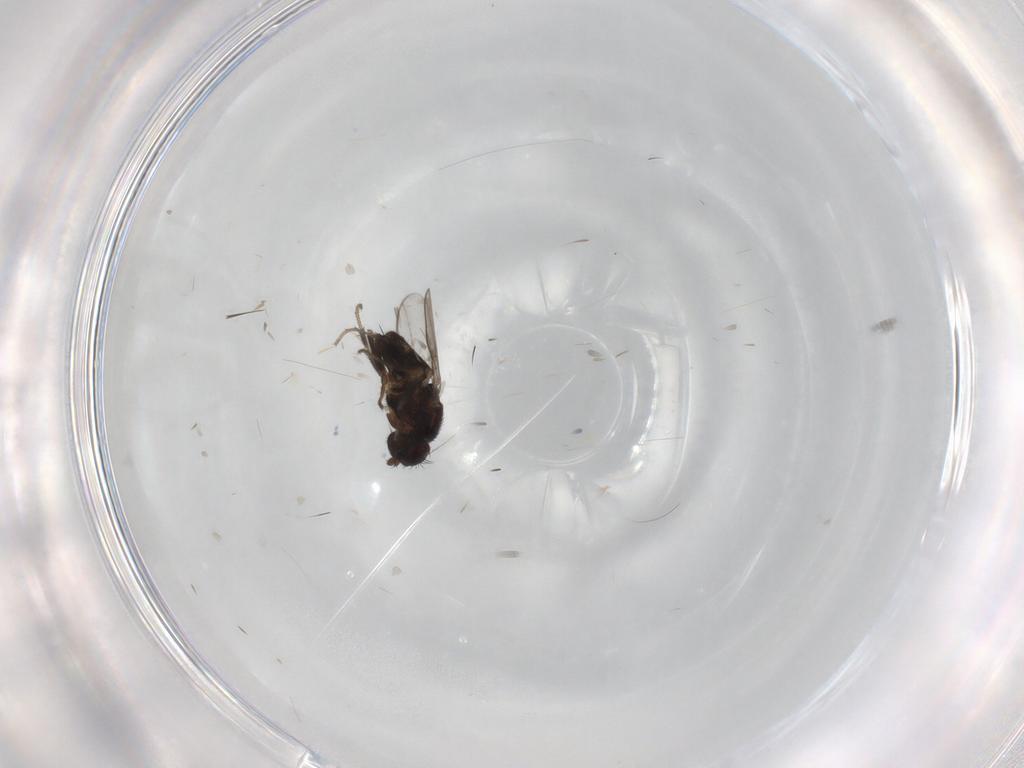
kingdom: Animalia
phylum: Arthropoda
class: Insecta
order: Diptera
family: Sphaeroceridae
